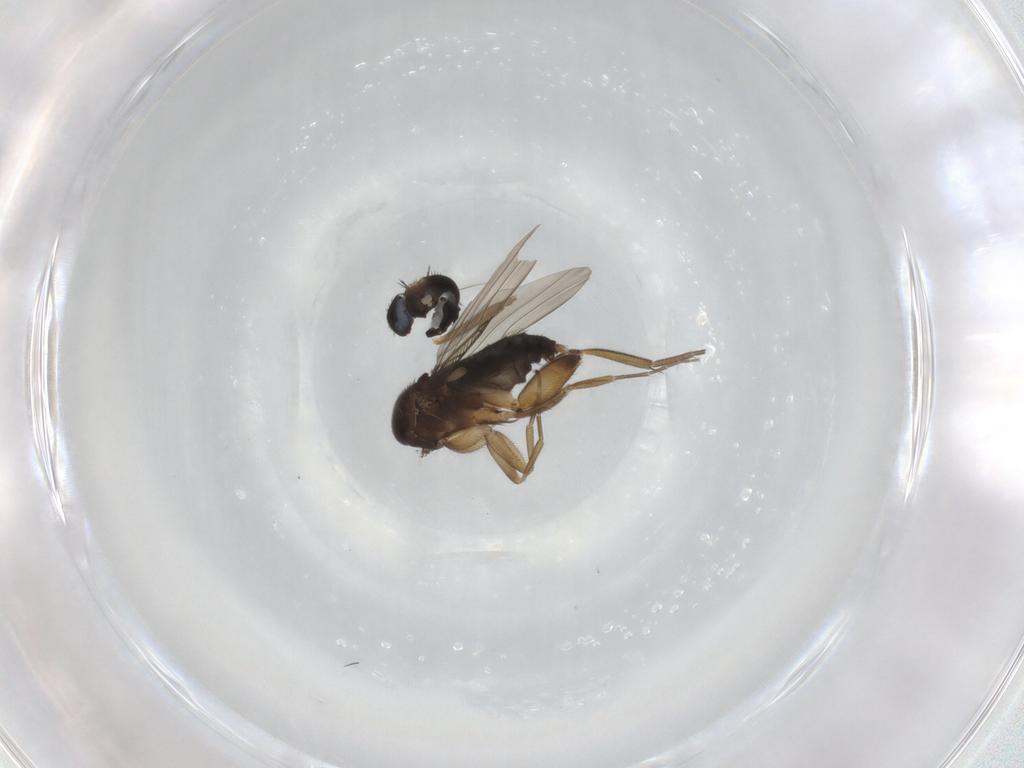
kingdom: Animalia
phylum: Arthropoda
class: Insecta
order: Diptera
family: Phoridae
